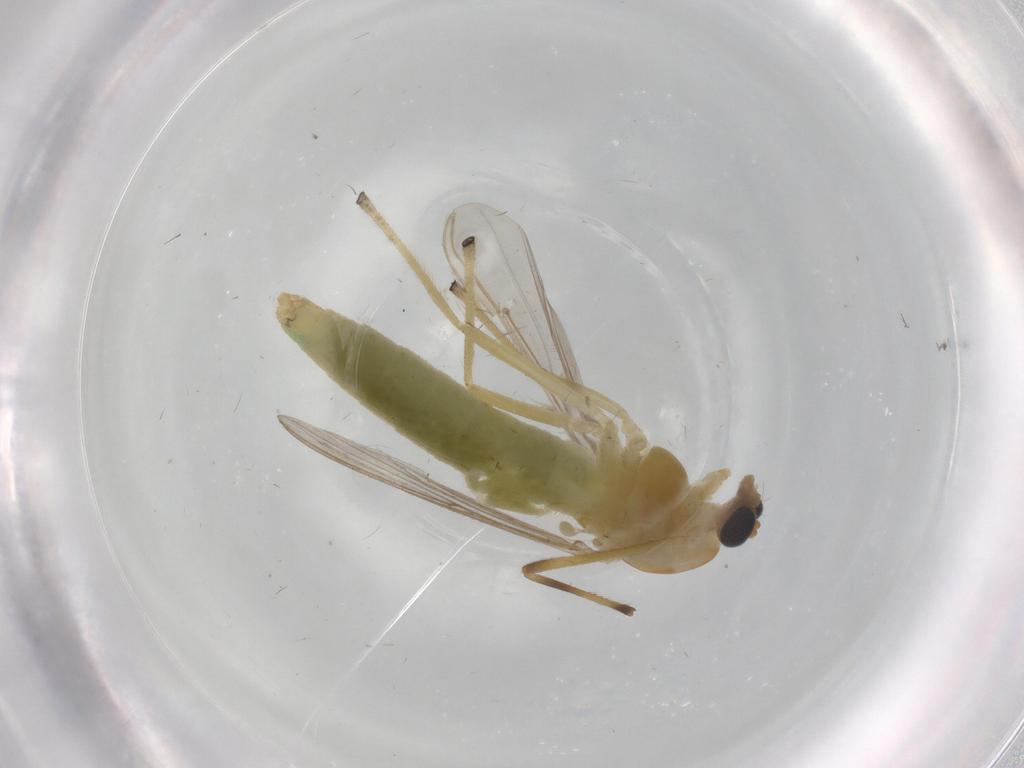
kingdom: Animalia
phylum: Arthropoda
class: Insecta
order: Diptera
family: Chironomidae
